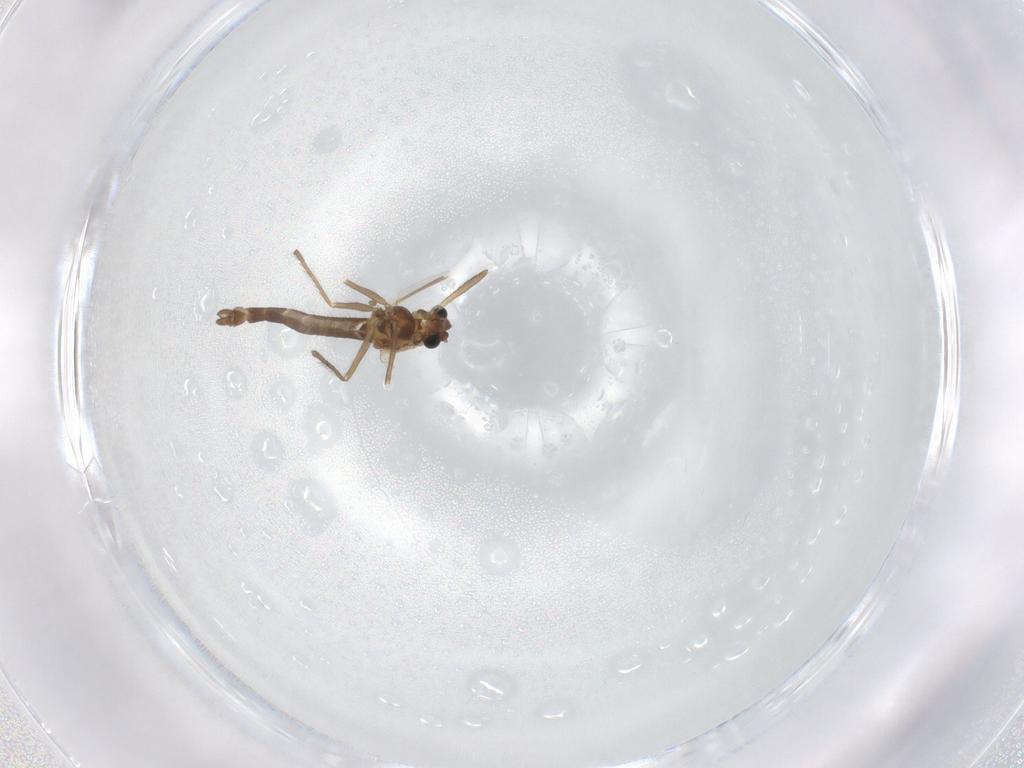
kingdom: Animalia
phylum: Arthropoda
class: Insecta
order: Diptera
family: Chironomidae
